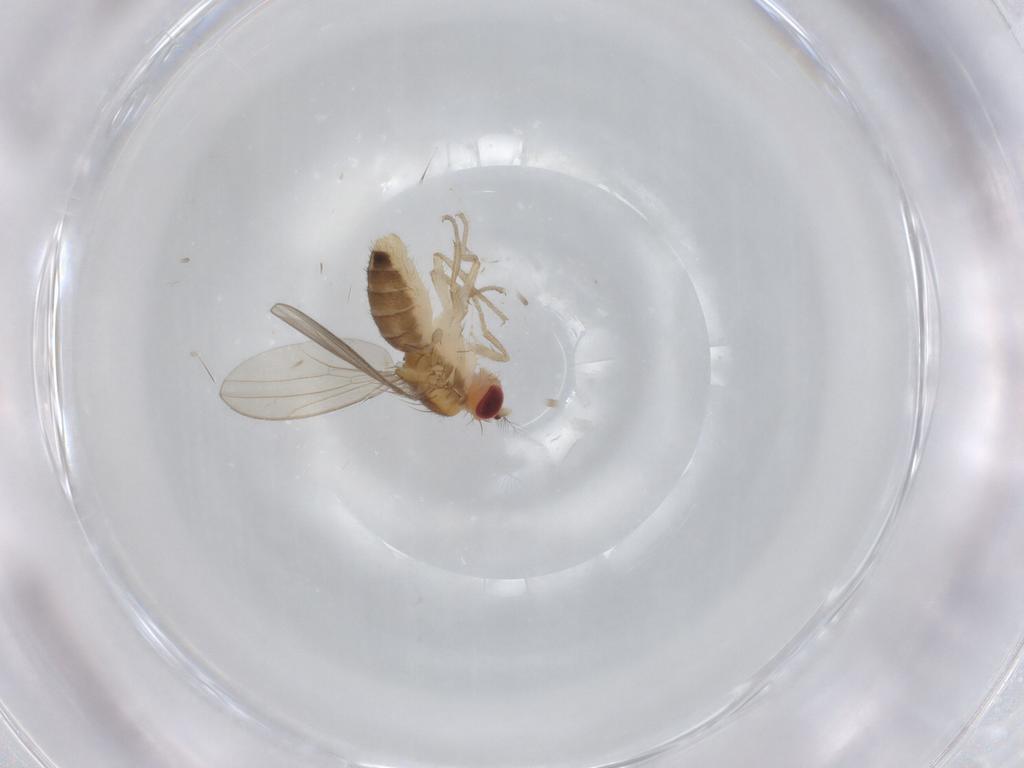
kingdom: Animalia
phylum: Arthropoda
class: Insecta
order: Diptera
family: Drosophilidae
